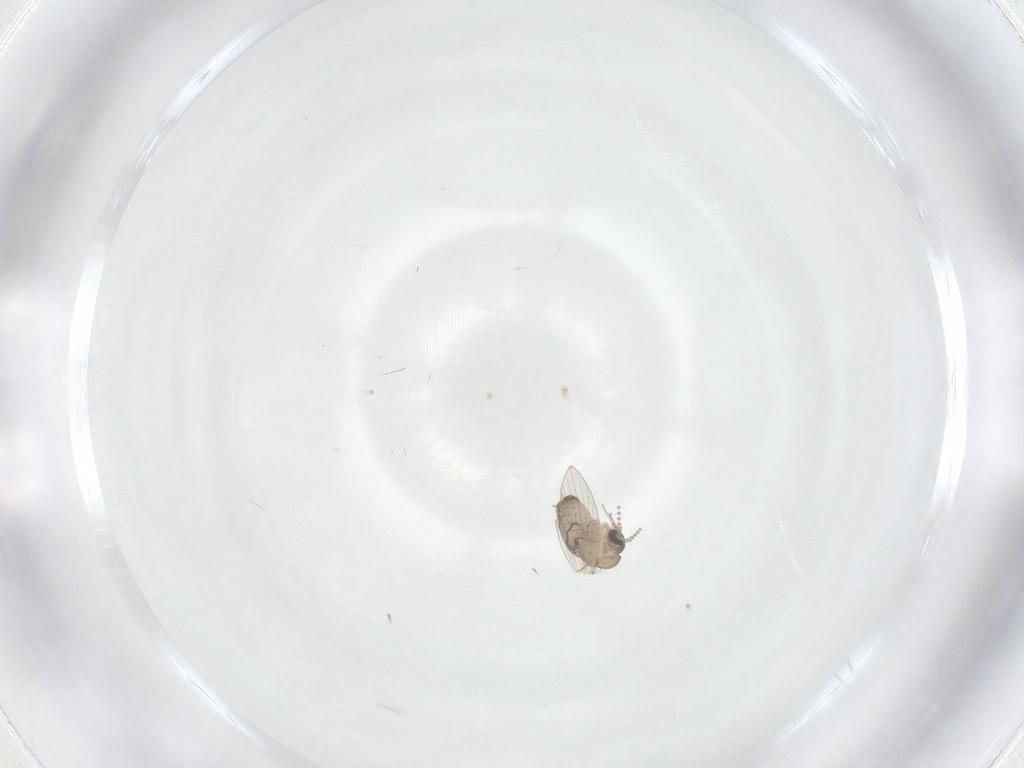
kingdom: Animalia
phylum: Arthropoda
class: Insecta
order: Diptera
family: Psychodidae
